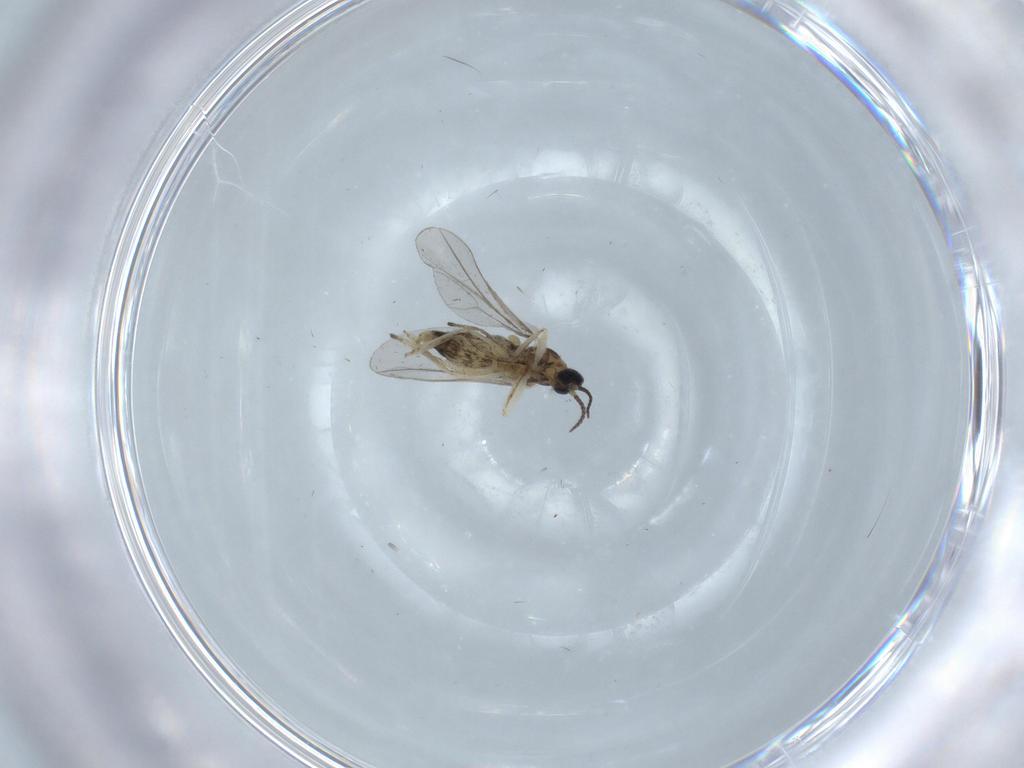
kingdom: Animalia
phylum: Arthropoda
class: Insecta
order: Diptera
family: Cecidomyiidae
